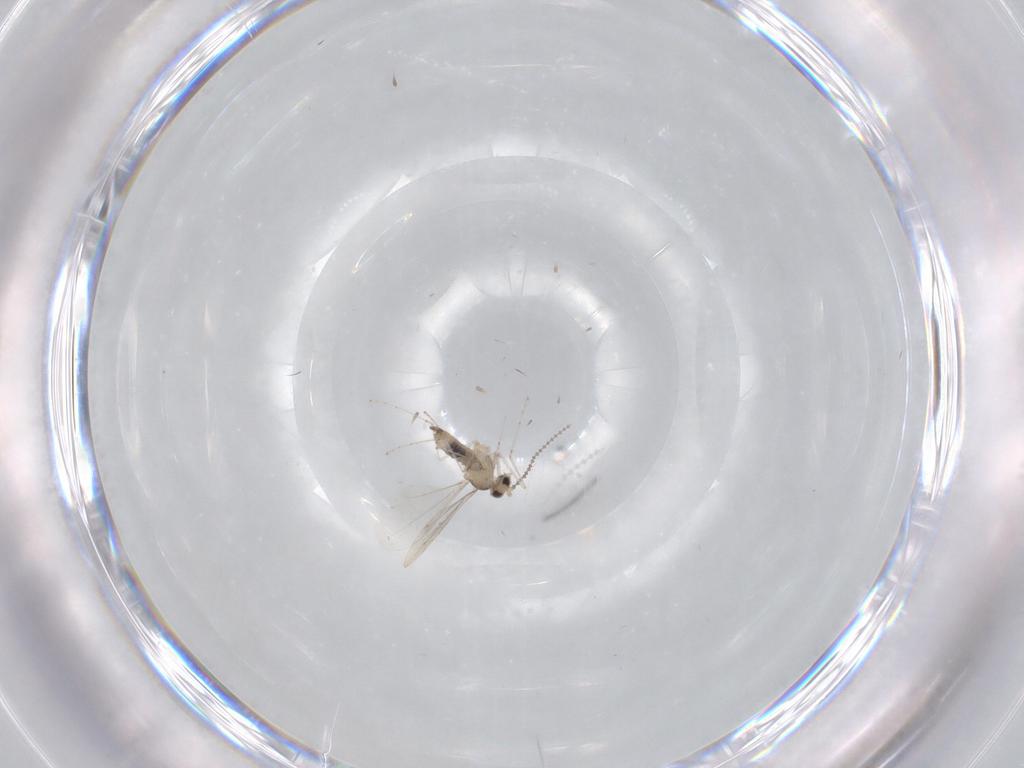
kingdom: Animalia
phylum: Arthropoda
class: Insecta
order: Diptera
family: Cecidomyiidae
